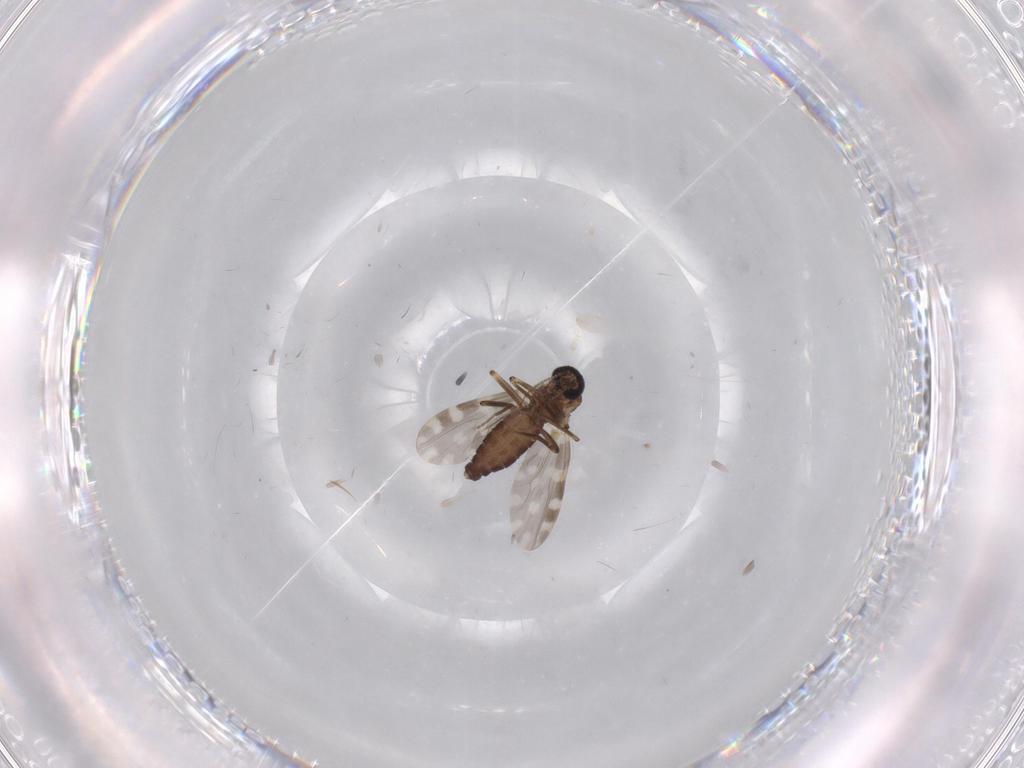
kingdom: Animalia
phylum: Arthropoda
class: Insecta
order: Diptera
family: Ceratopogonidae
